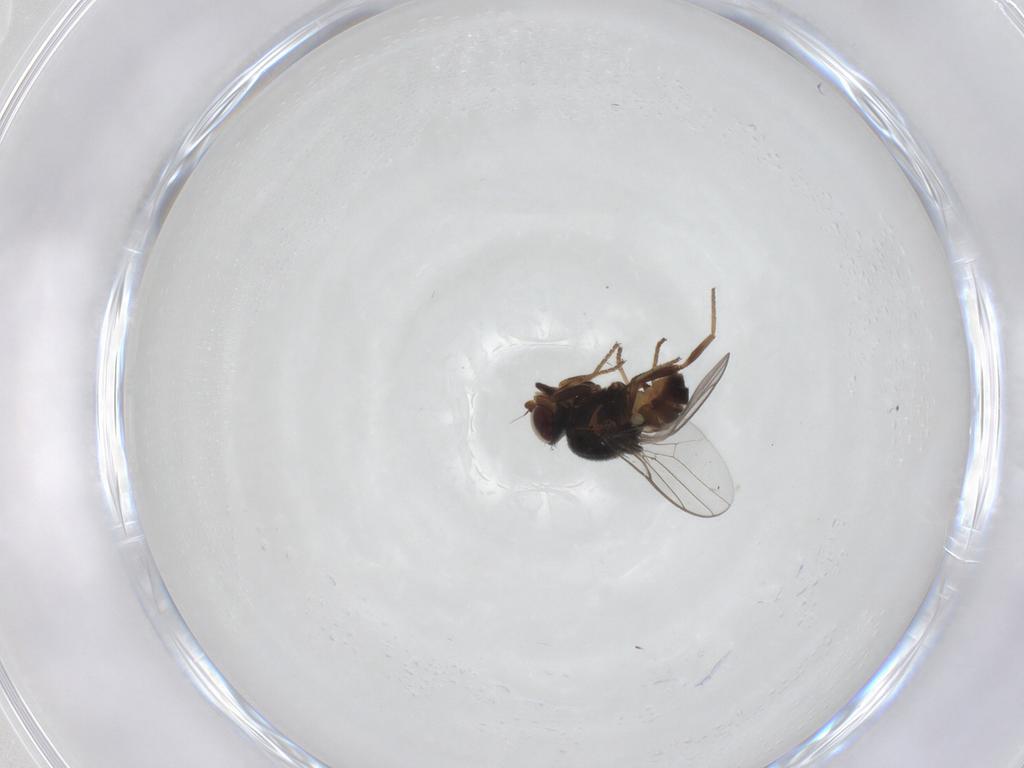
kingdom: Animalia
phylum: Arthropoda
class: Insecta
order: Diptera
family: Chloropidae
